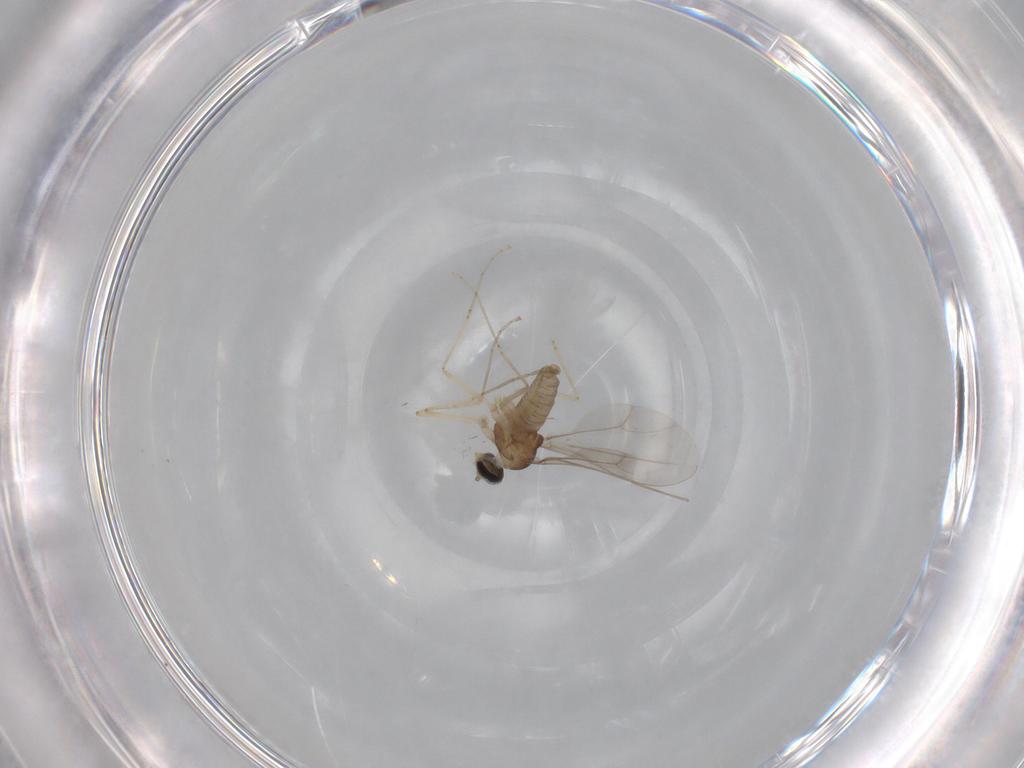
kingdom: Animalia
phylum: Arthropoda
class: Insecta
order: Diptera
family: Cecidomyiidae
